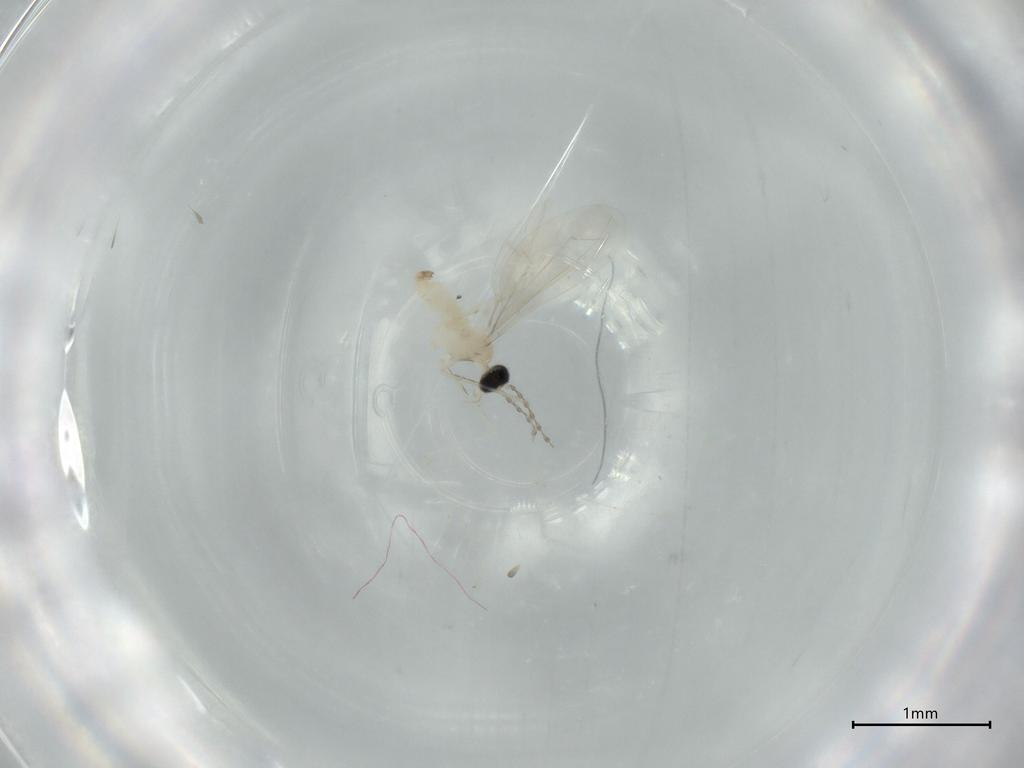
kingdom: Animalia
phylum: Arthropoda
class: Insecta
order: Diptera
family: Cecidomyiidae
